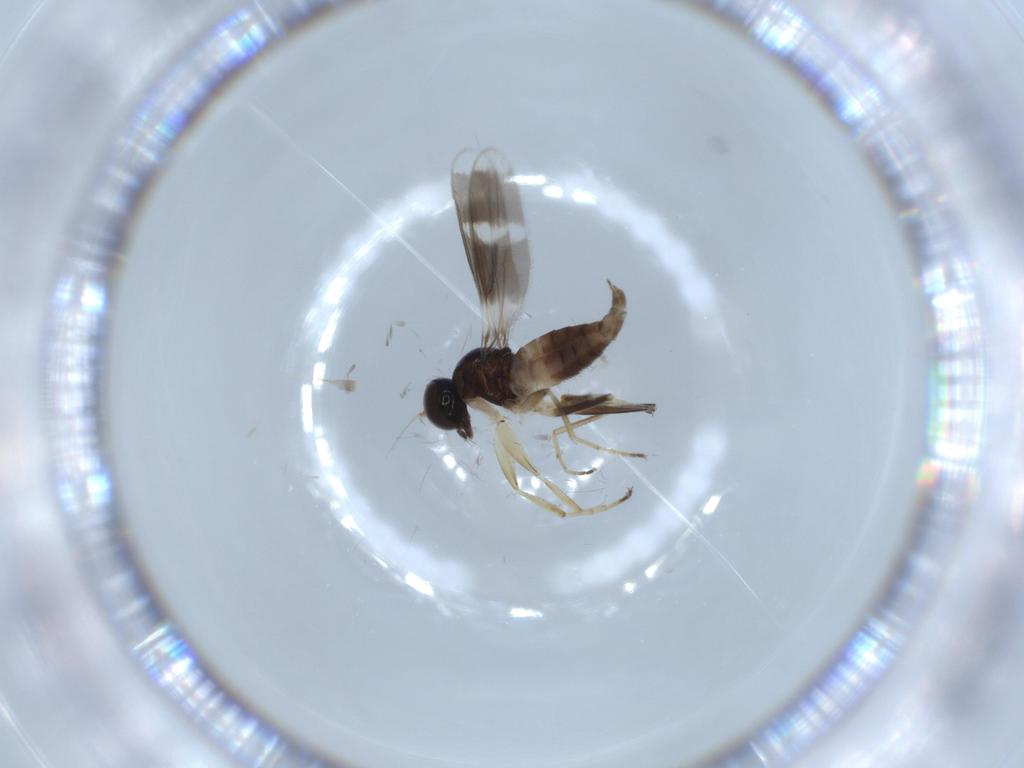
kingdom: Animalia
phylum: Arthropoda
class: Insecta
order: Diptera
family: Hybotidae
